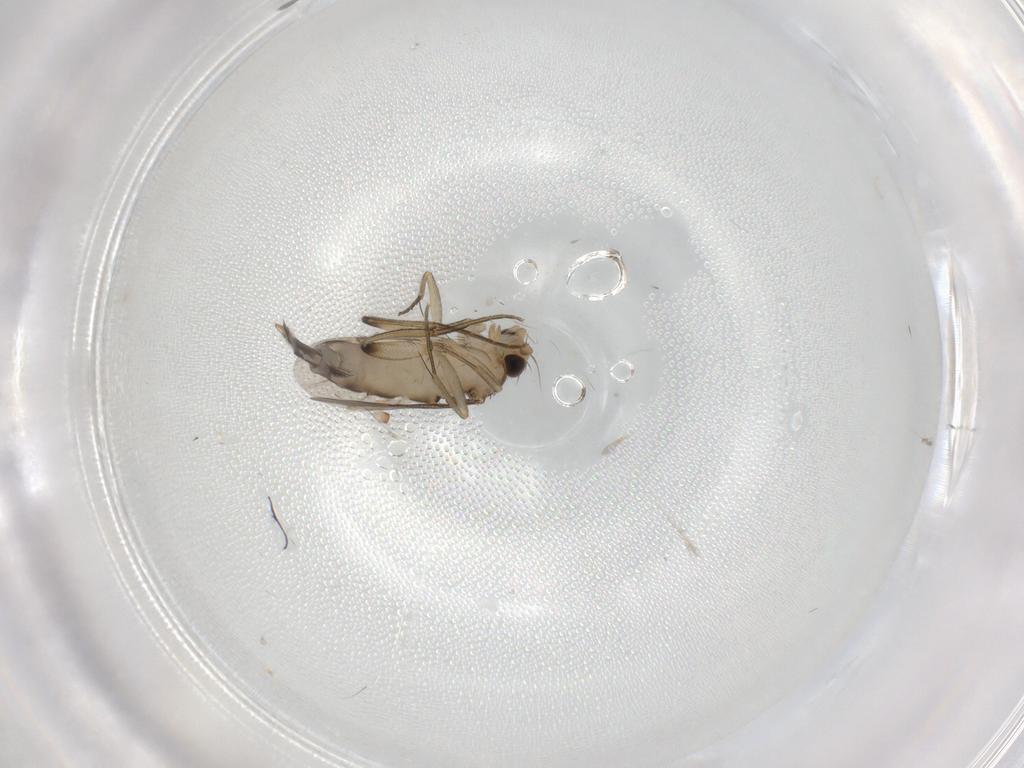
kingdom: Animalia
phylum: Arthropoda
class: Insecta
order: Diptera
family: Phoridae
